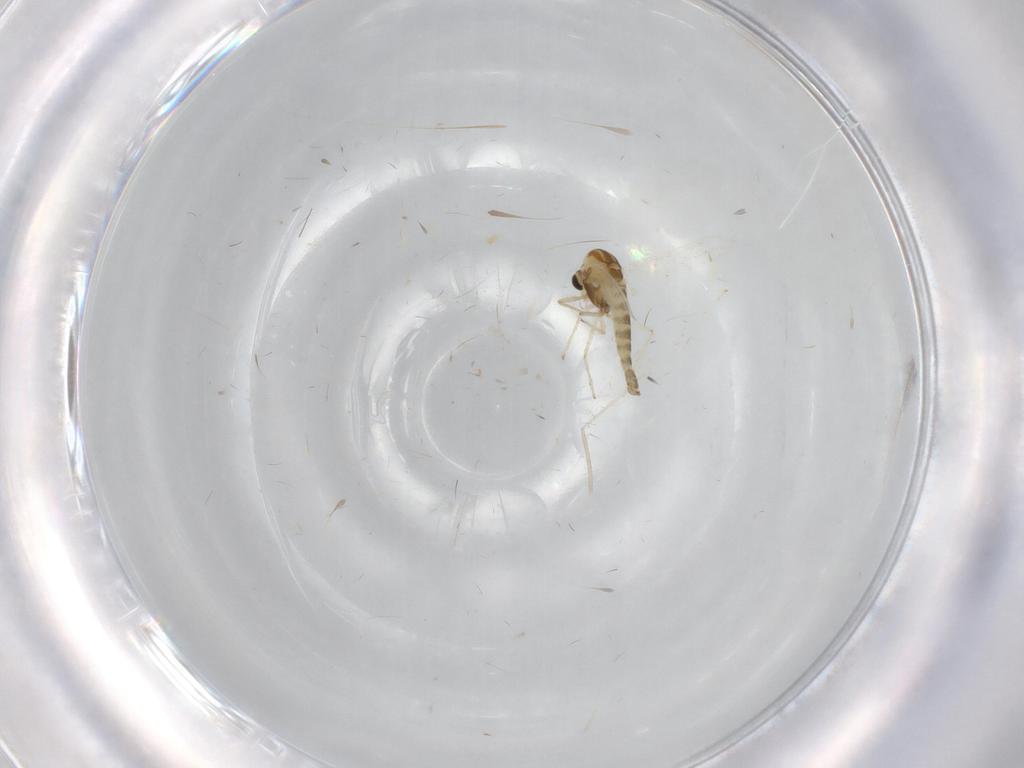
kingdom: Animalia
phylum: Arthropoda
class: Insecta
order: Diptera
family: Chironomidae
